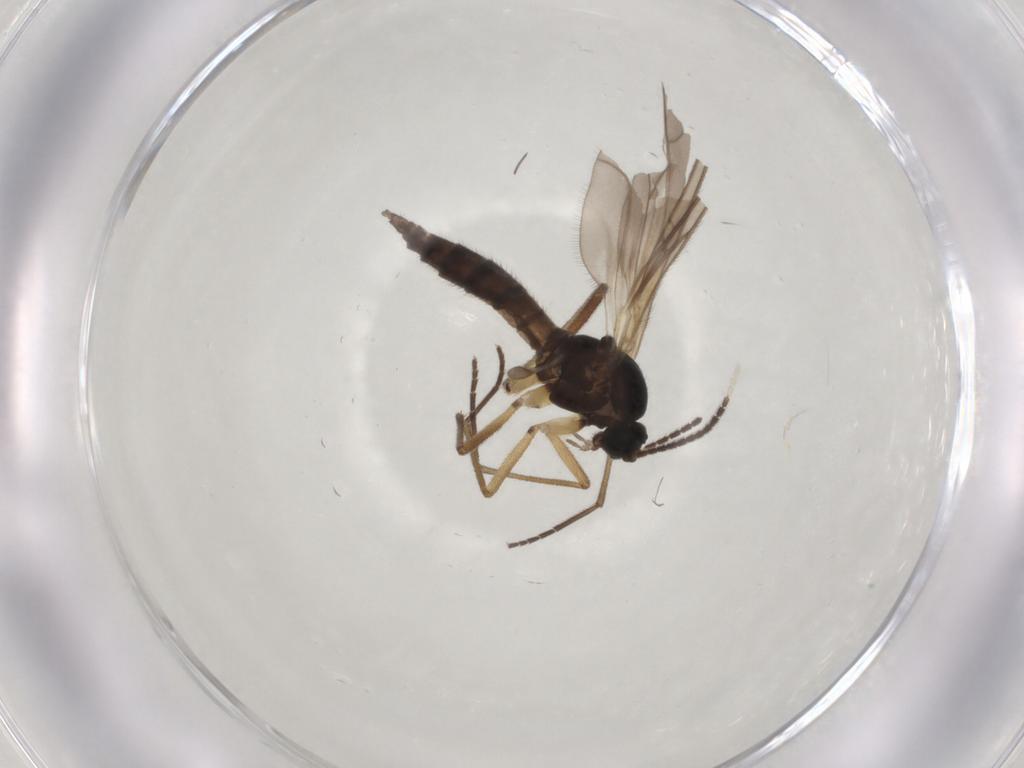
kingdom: Animalia
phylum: Arthropoda
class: Insecta
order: Diptera
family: Sciaridae
